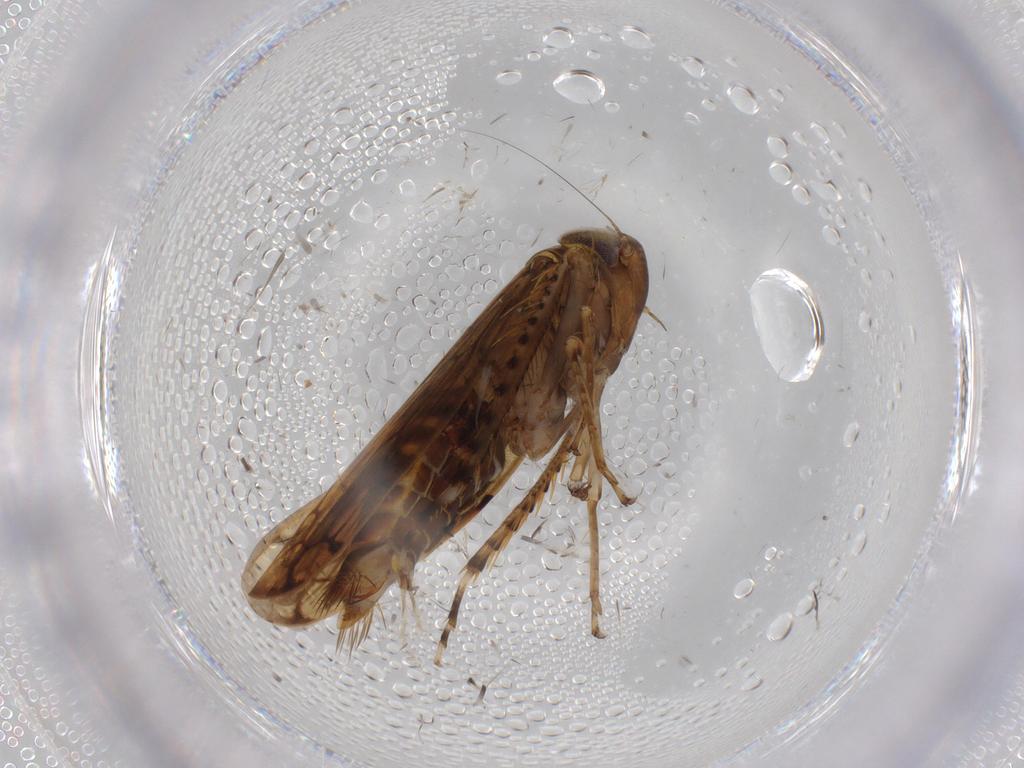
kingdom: Animalia
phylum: Arthropoda
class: Insecta
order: Hemiptera
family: Cicadellidae
